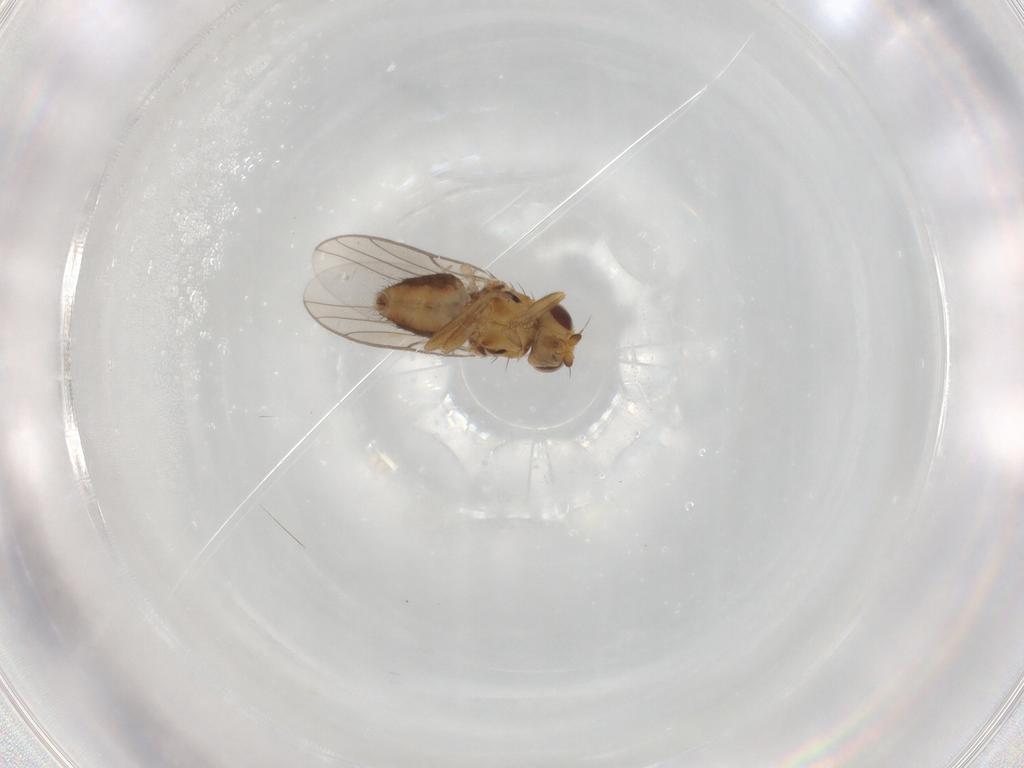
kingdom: Animalia
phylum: Arthropoda
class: Insecta
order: Diptera
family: Chloropidae
